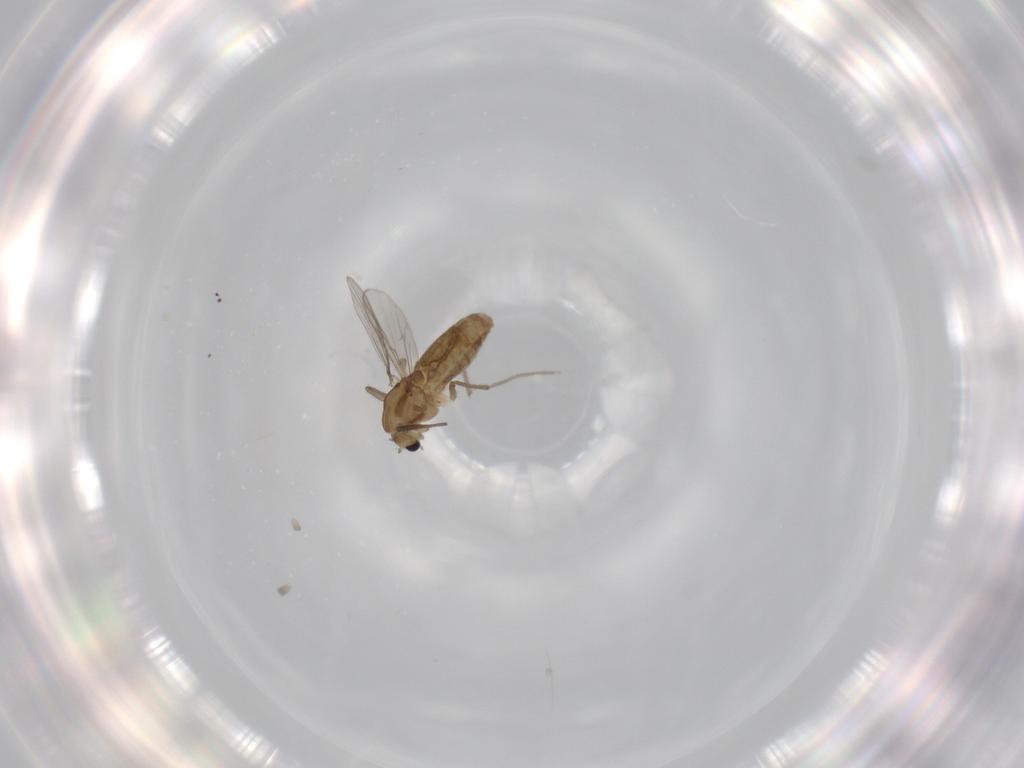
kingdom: Animalia
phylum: Arthropoda
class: Insecta
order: Diptera
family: Chironomidae
